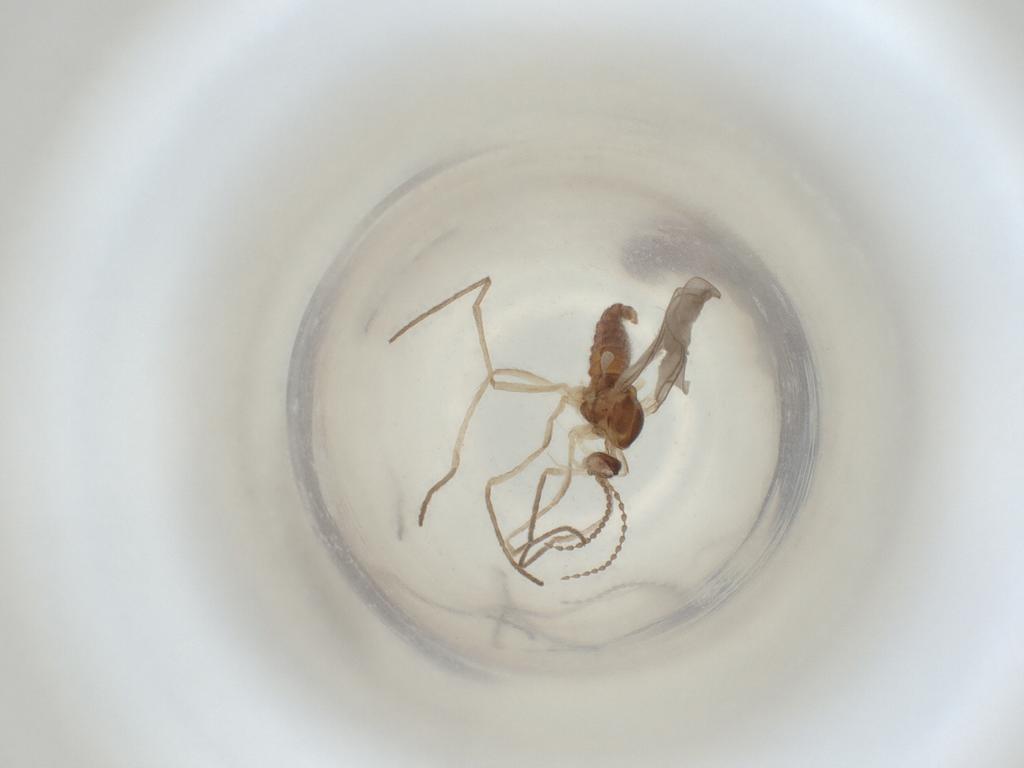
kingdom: Animalia
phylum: Arthropoda
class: Insecta
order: Diptera
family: Cecidomyiidae
